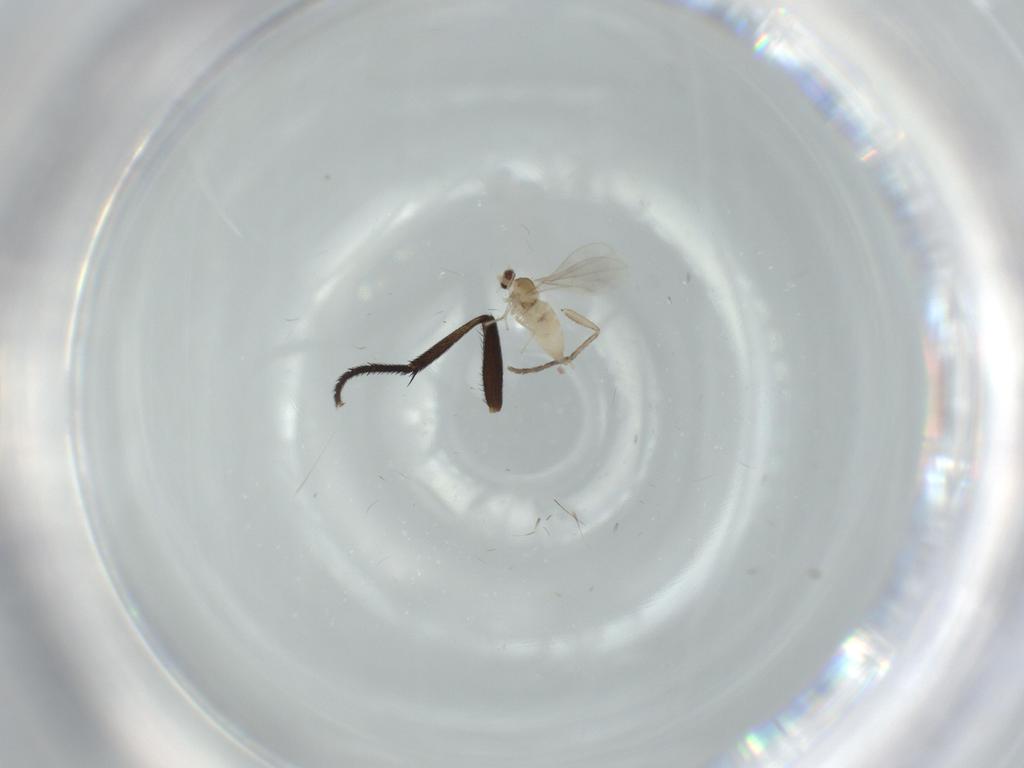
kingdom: Animalia
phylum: Arthropoda
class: Insecta
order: Diptera
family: Anthomyiidae
